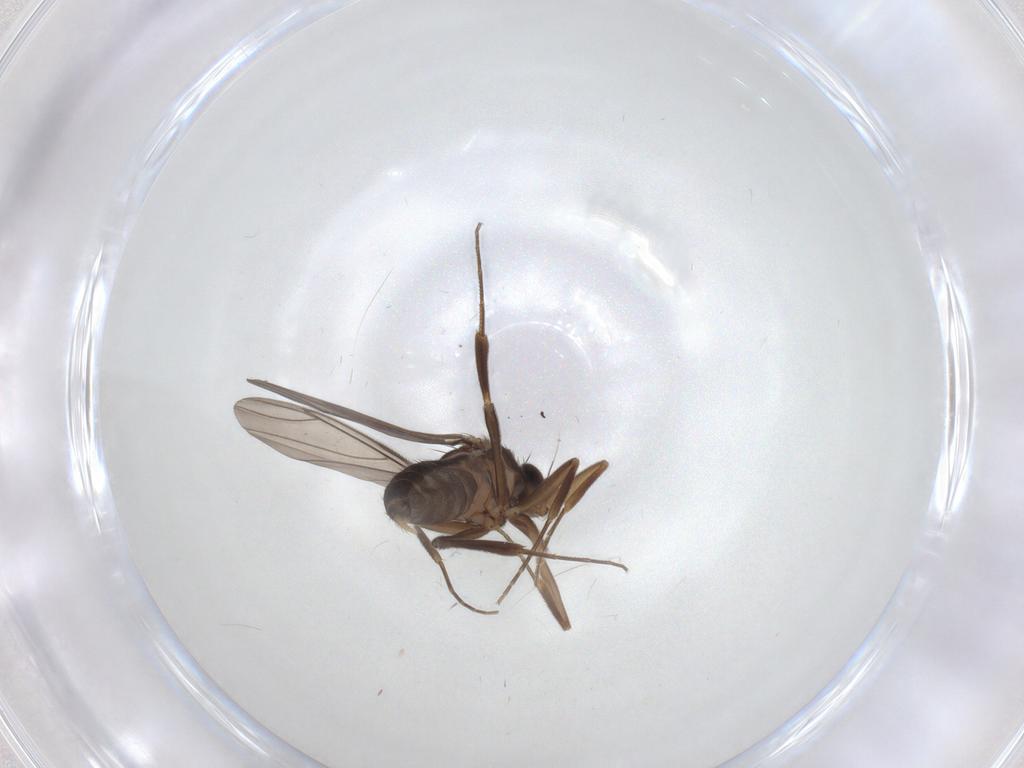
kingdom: Animalia
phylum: Arthropoda
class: Insecta
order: Diptera
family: Phoridae
